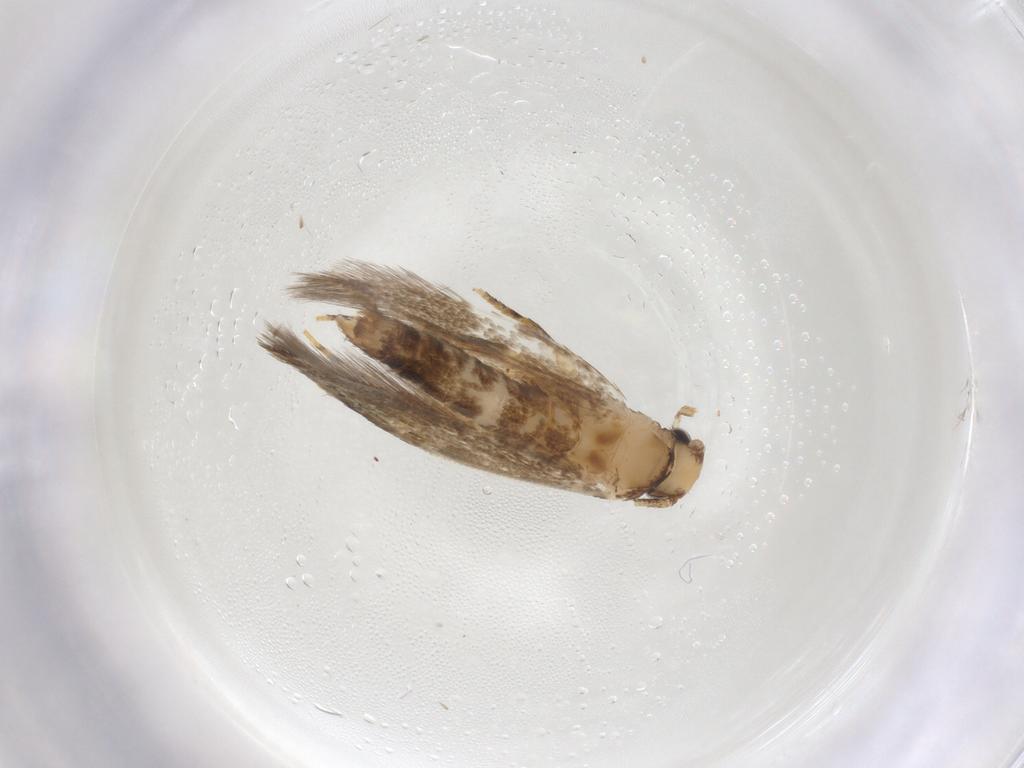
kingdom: Animalia
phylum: Arthropoda
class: Insecta
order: Lepidoptera
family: Tineidae
